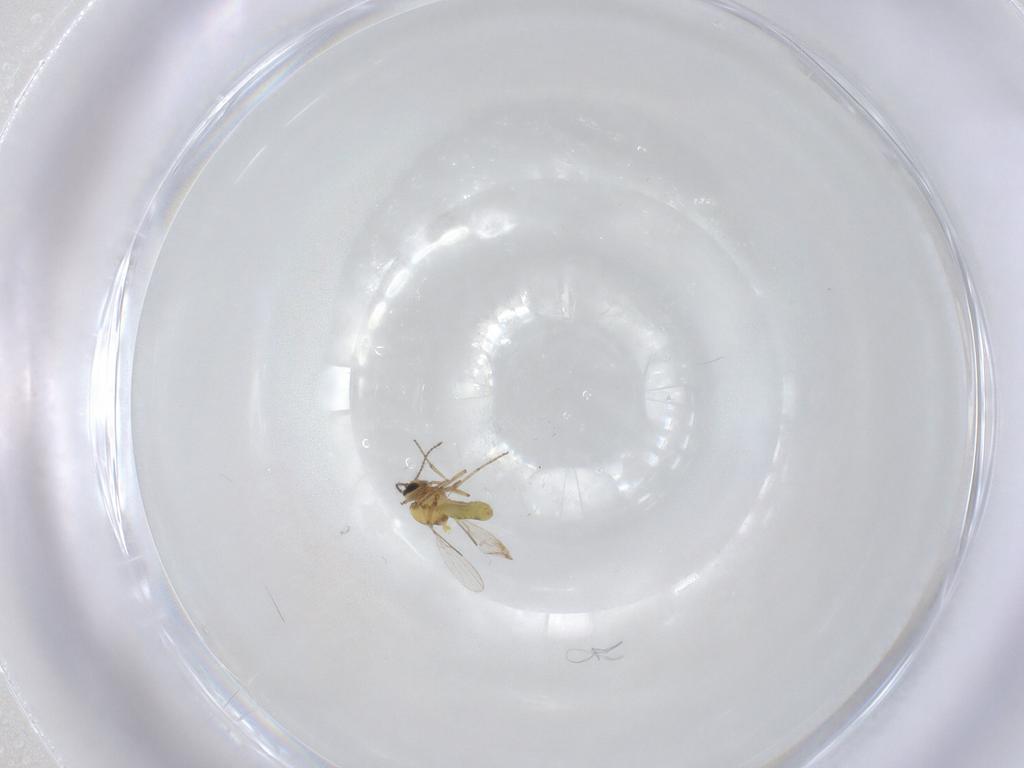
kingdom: Animalia
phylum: Arthropoda
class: Insecta
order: Diptera
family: Ceratopogonidae
